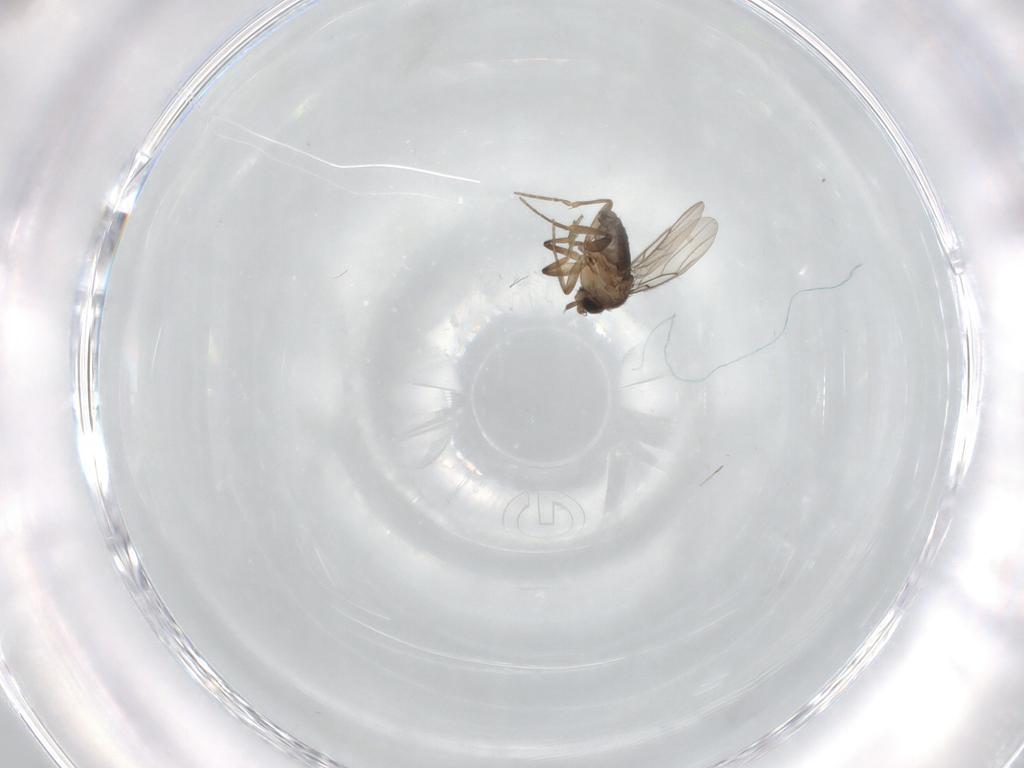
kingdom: Animalia
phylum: Arthropoda
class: Insecta
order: Diptera
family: Phoridae
